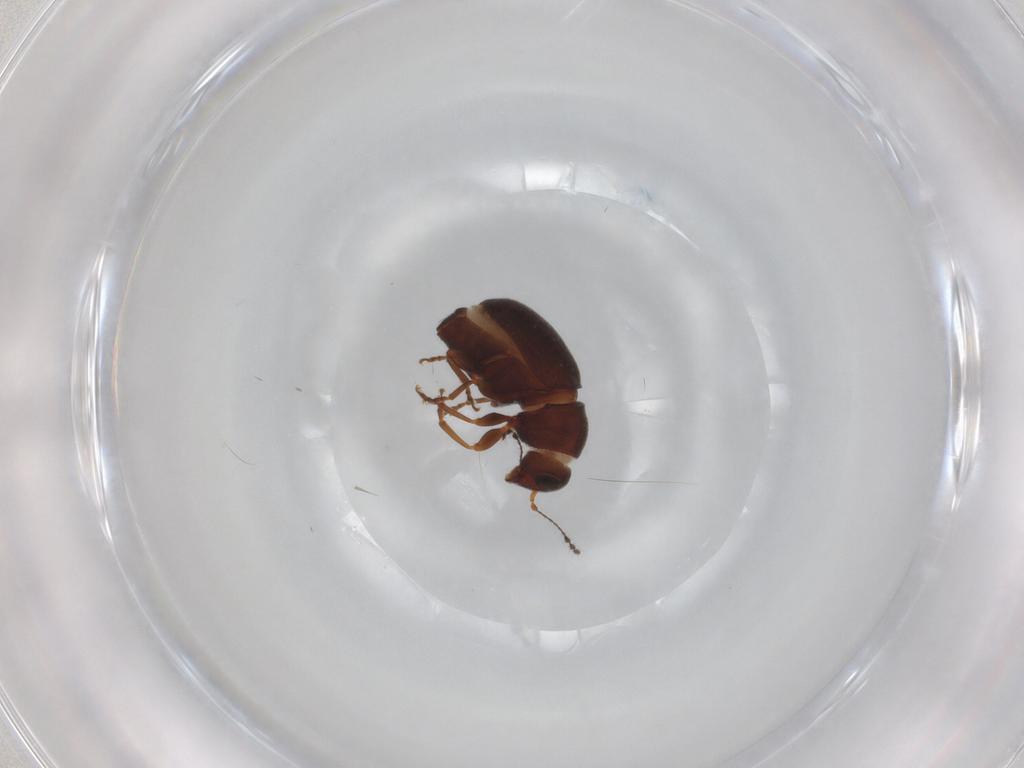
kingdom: Animalia
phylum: Arthropoda
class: Insecta
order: Coleoptera
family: Anthribidae
